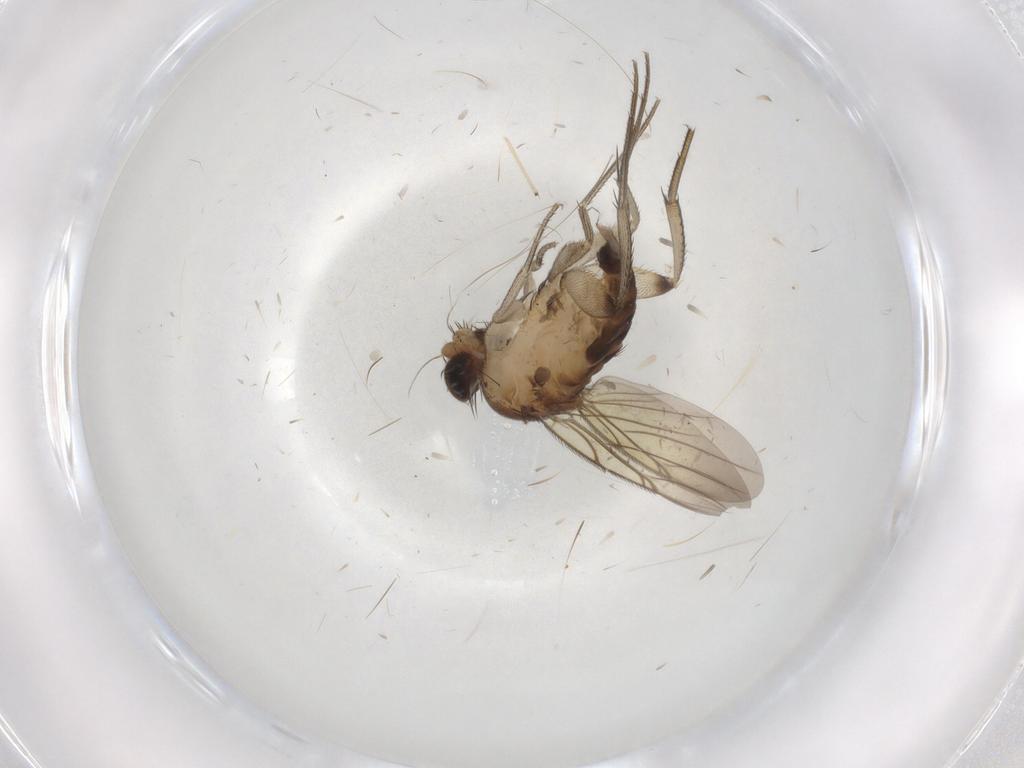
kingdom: Animalia
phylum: Arthropoda
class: Insecta
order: Diptera
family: Phoridae
